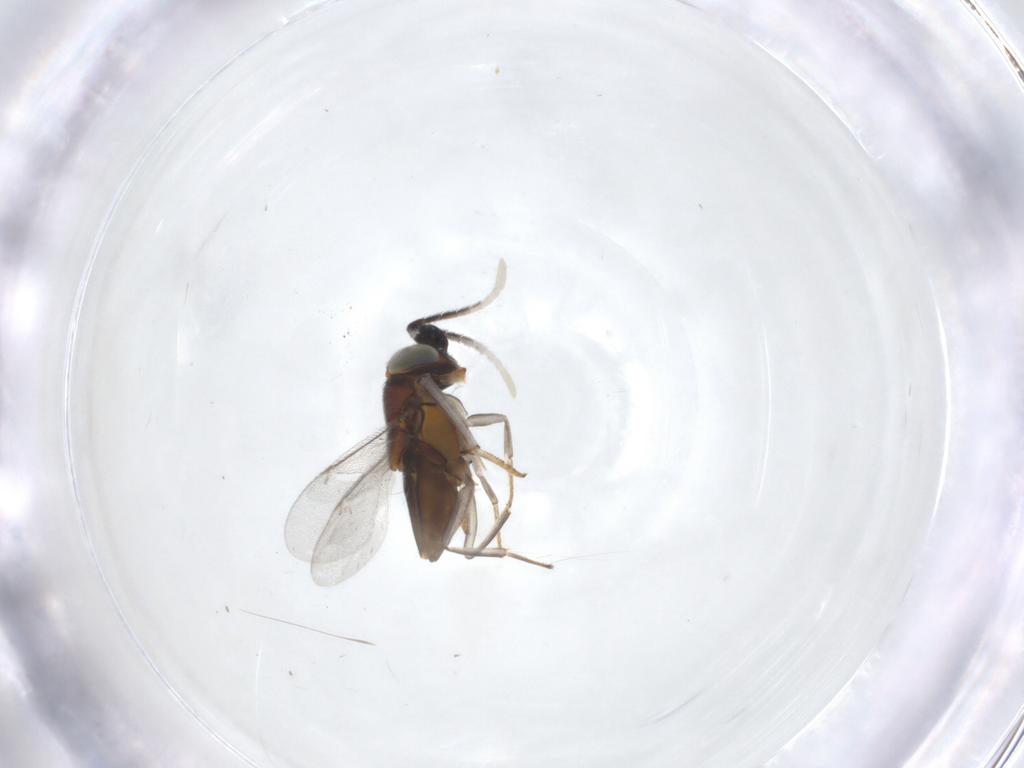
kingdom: Animalia
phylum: Arthropoda
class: Insecta
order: Hymenoptera
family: Encyrtidae
